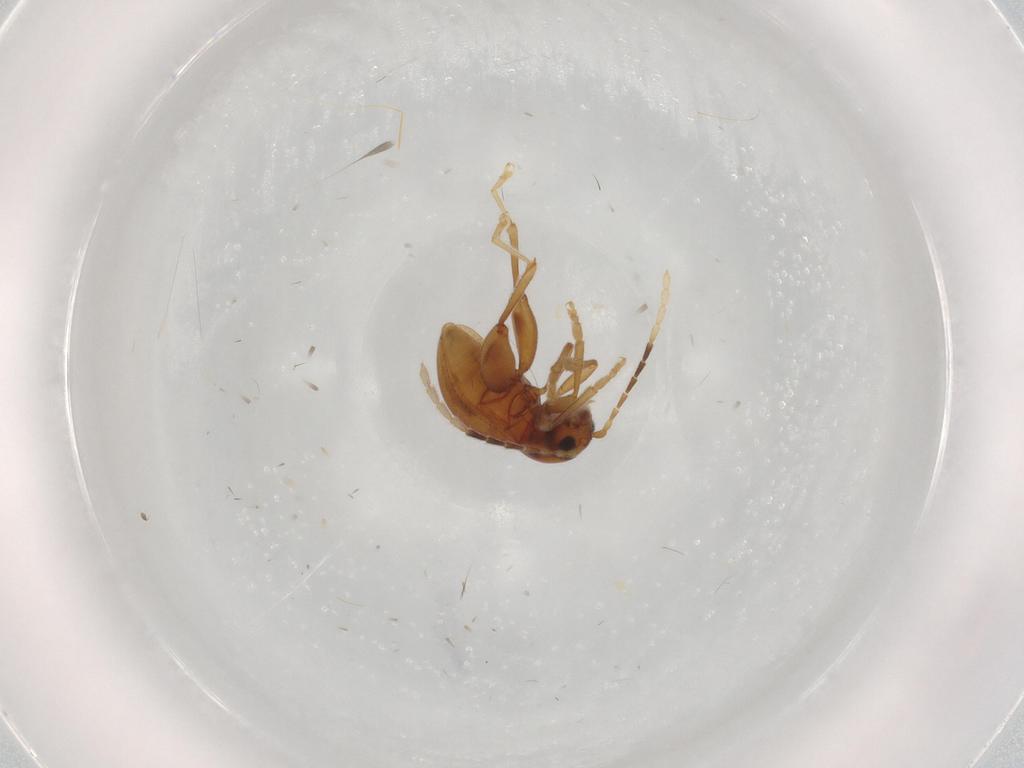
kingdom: Animalia
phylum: Arthropoda
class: Insecta
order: Coleoptera
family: Chrysomelidae
